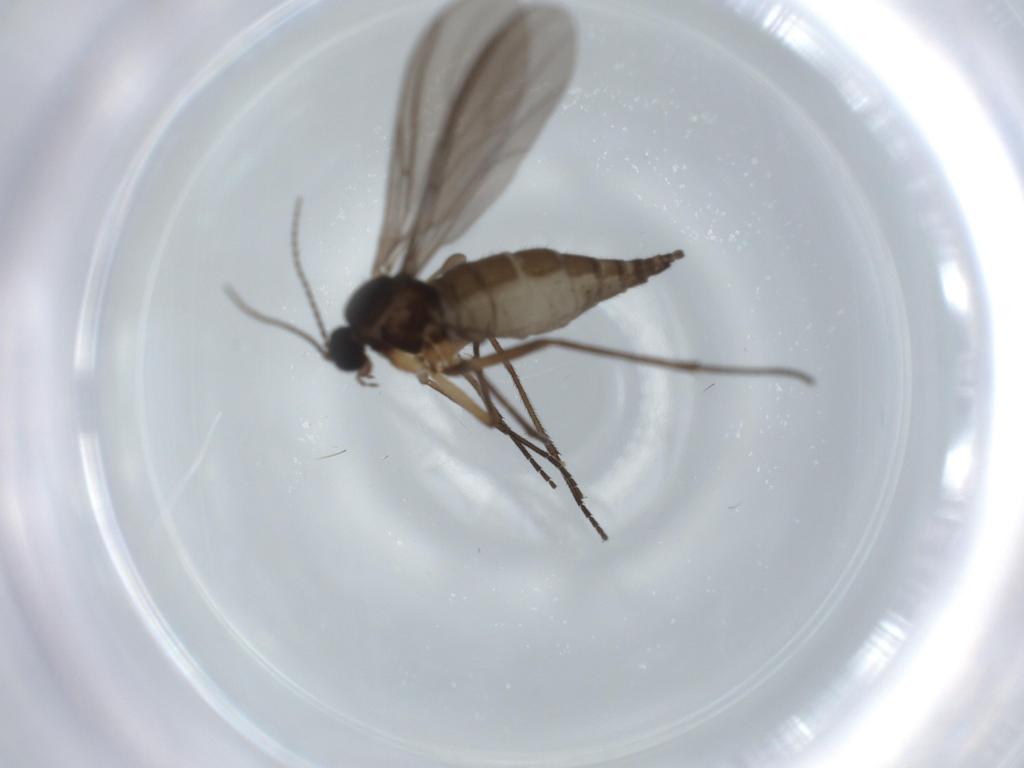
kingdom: Animalia
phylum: Arthropoda
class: Insecta
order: Diptera
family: Sciaridae
